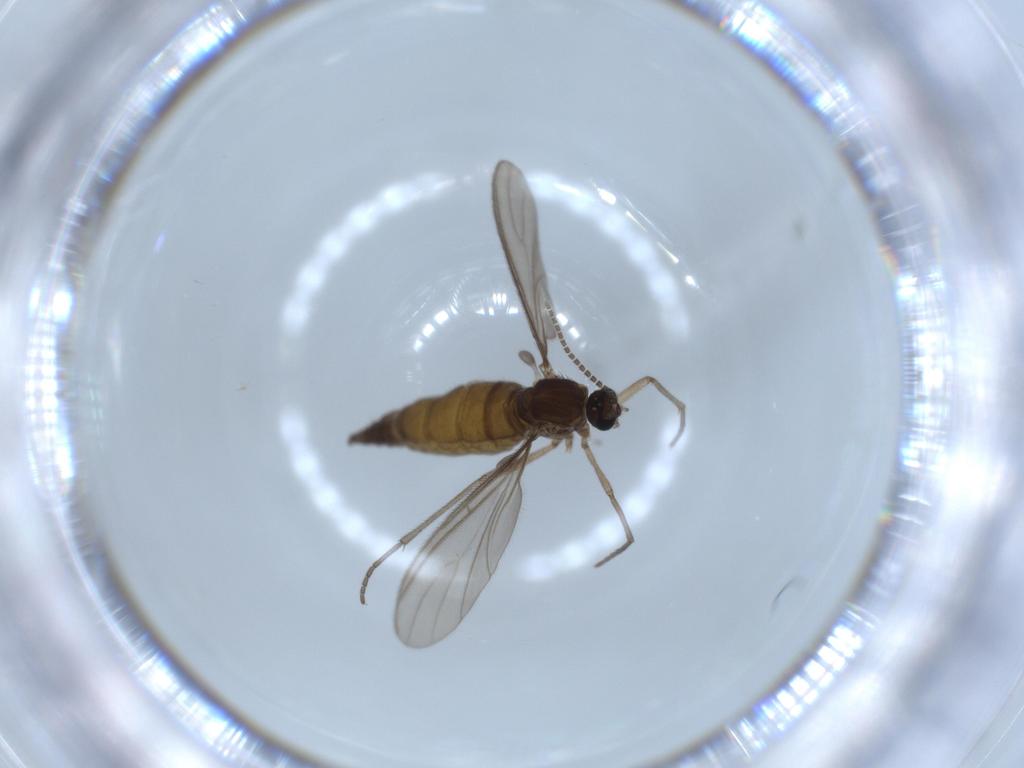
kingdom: Animalia
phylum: Arthropoda
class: Insecta
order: Diptera
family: Sciaridae
